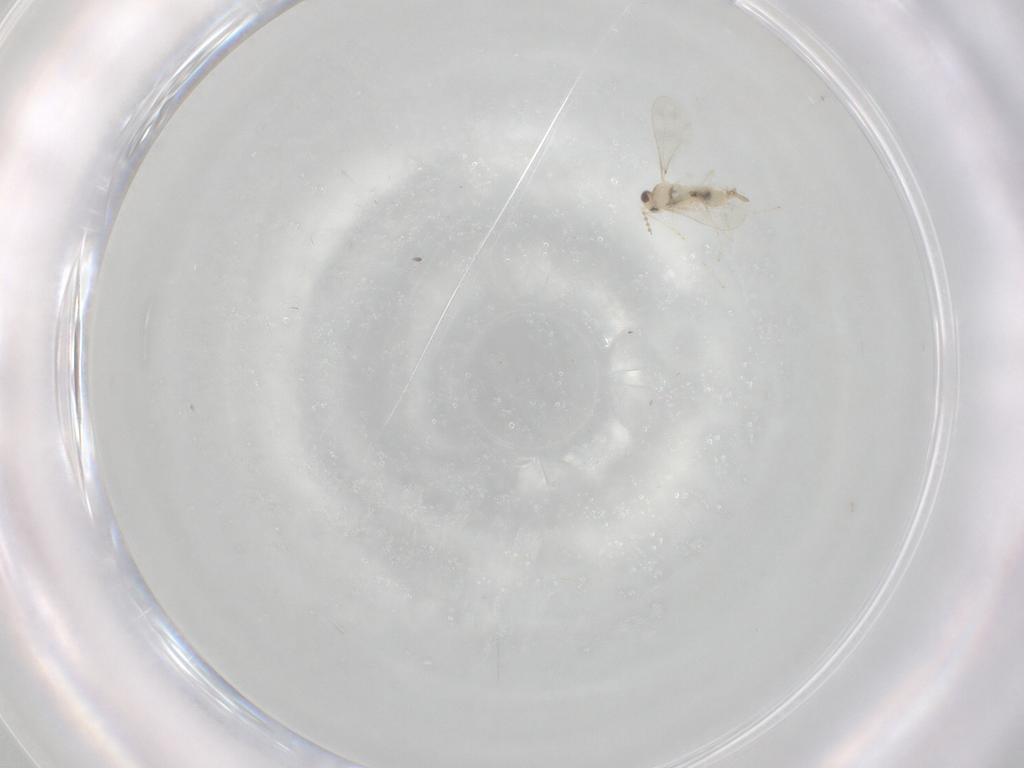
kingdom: Animalia
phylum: Arthropoda
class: Insecta
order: Diptera
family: Cecidomyiidae
